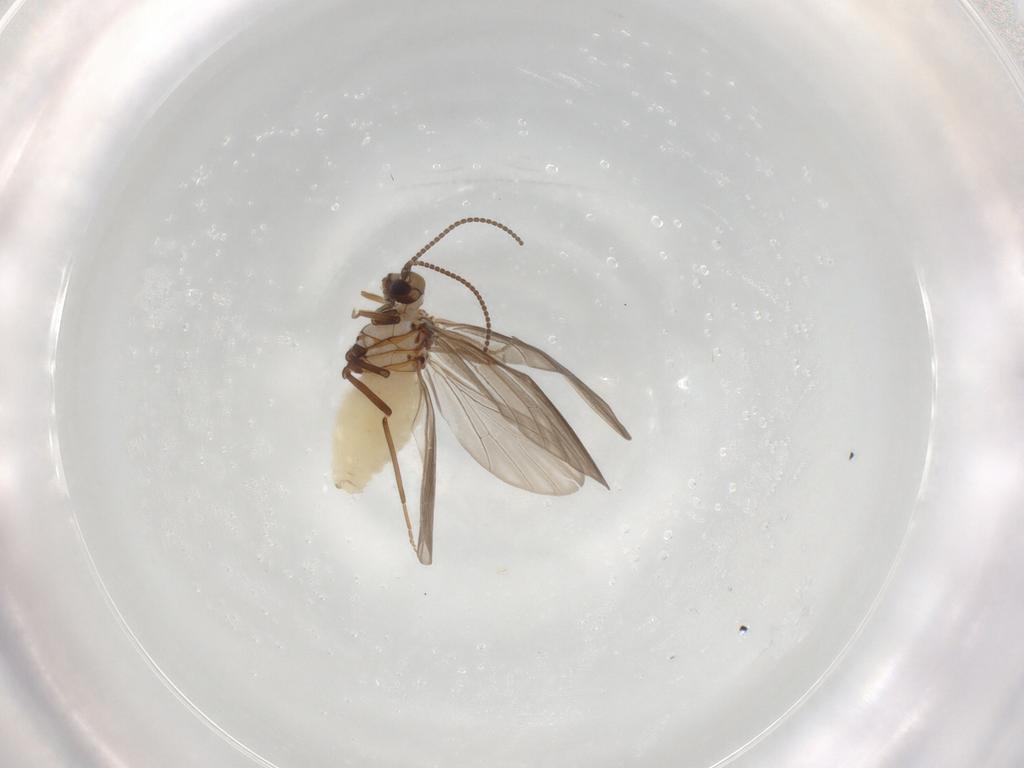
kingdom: Animalia
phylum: Arthropoda
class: Insecta
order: Neuroptera
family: Coniopterygidae
